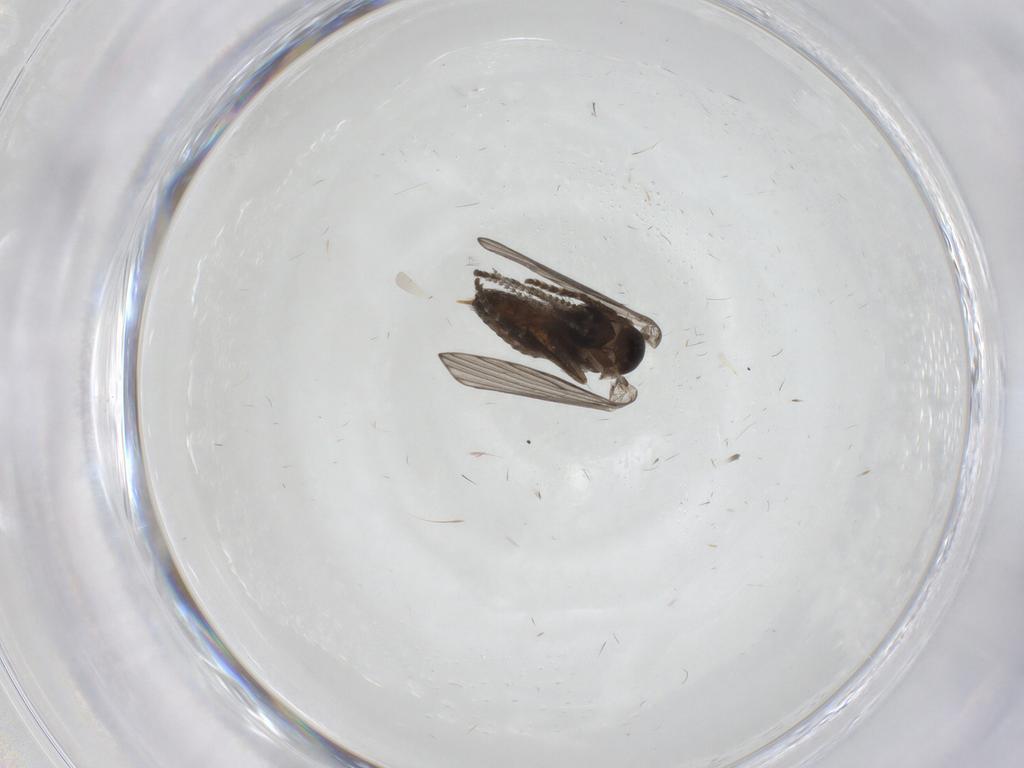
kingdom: Animalia
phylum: Arthropoda
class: Insecta
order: Diptera
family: Psychodidae
